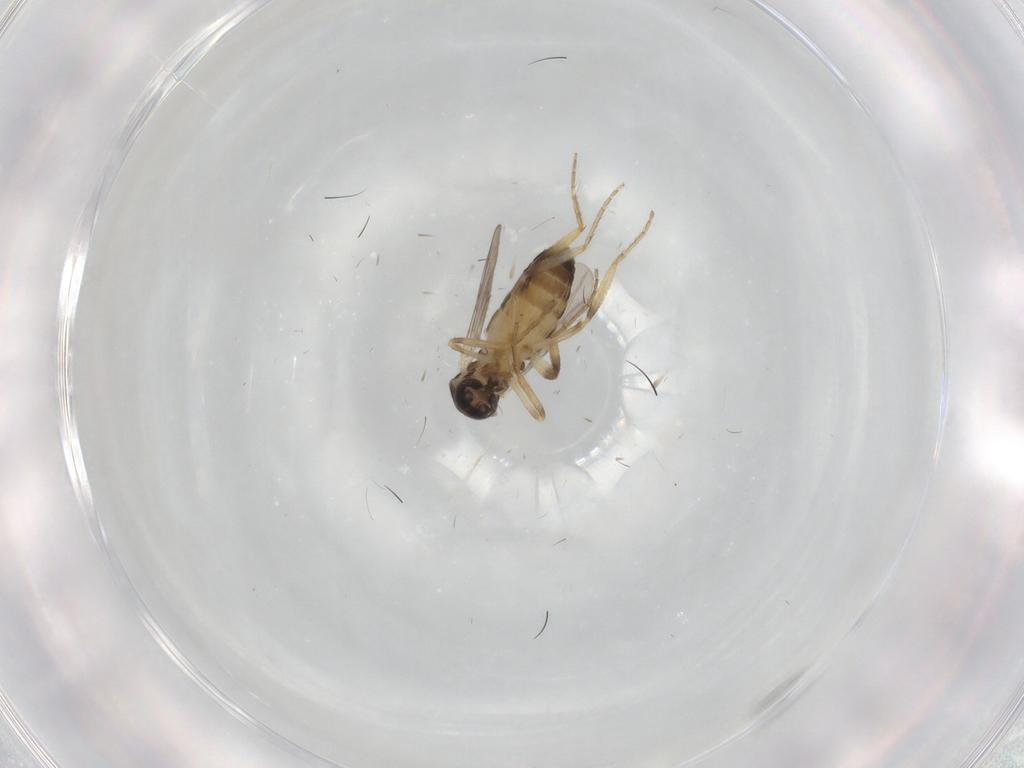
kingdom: Animalia
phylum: Arthropoda
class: Insecta
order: Diptera
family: Ceratopogonidae
